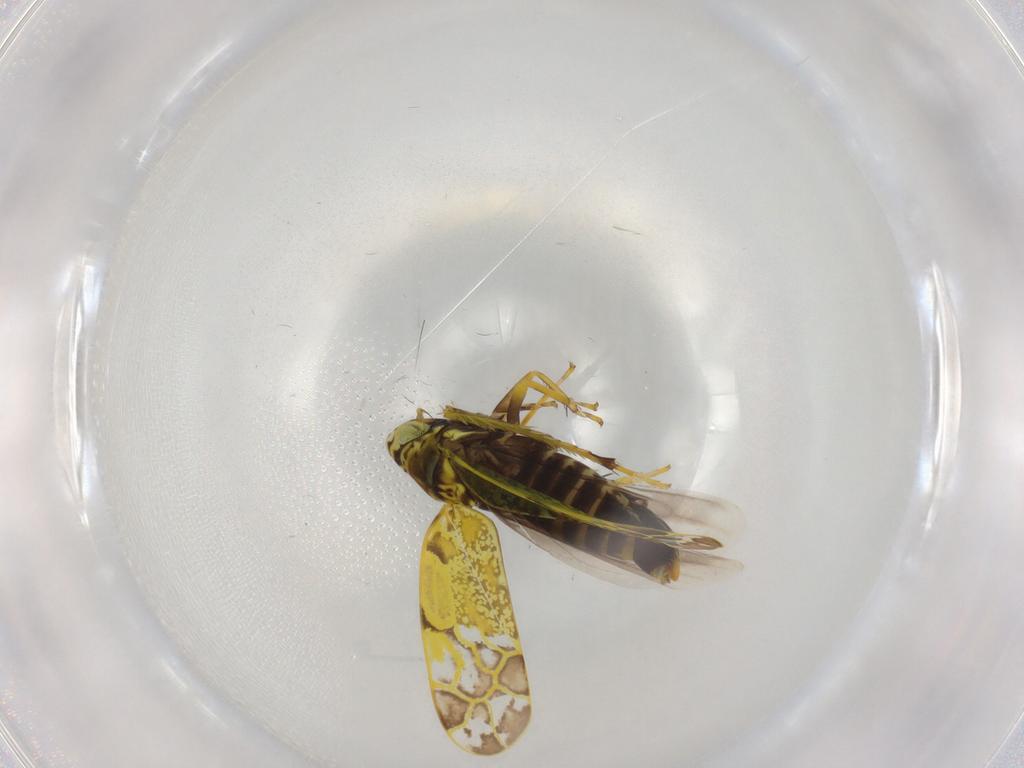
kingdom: Animalia
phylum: Arthropoda
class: Insecta
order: Hemiptera
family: Cicadellidae
